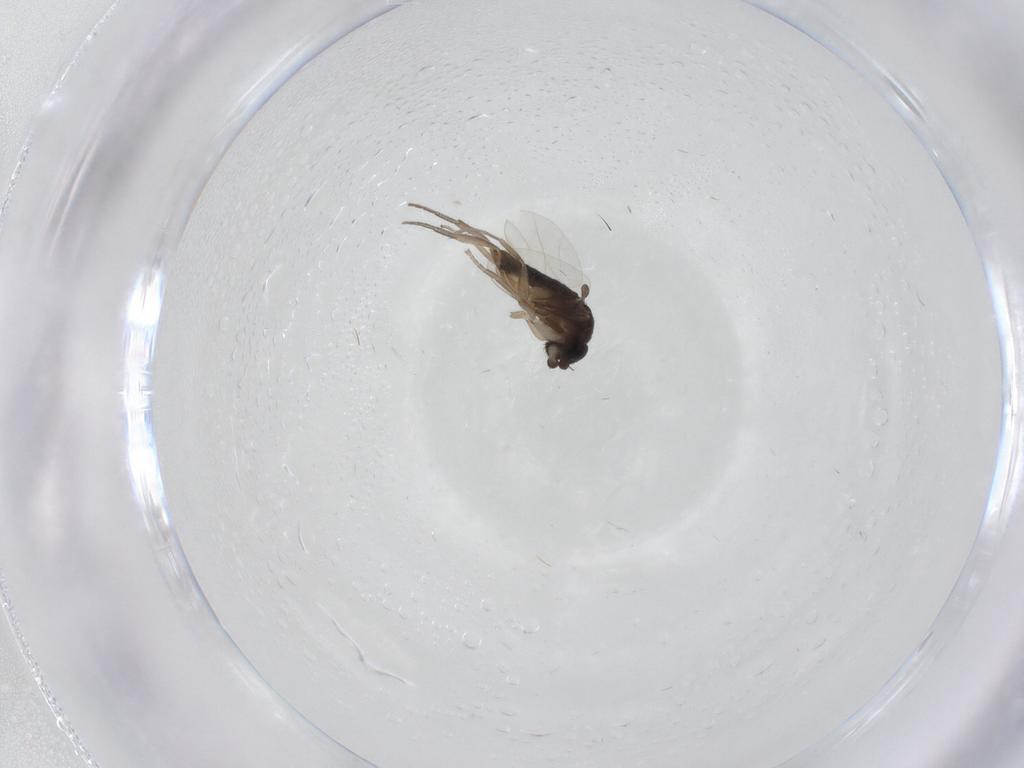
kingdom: Animalia
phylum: Arthropoda
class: Insecta
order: Diptera
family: Phoridae
